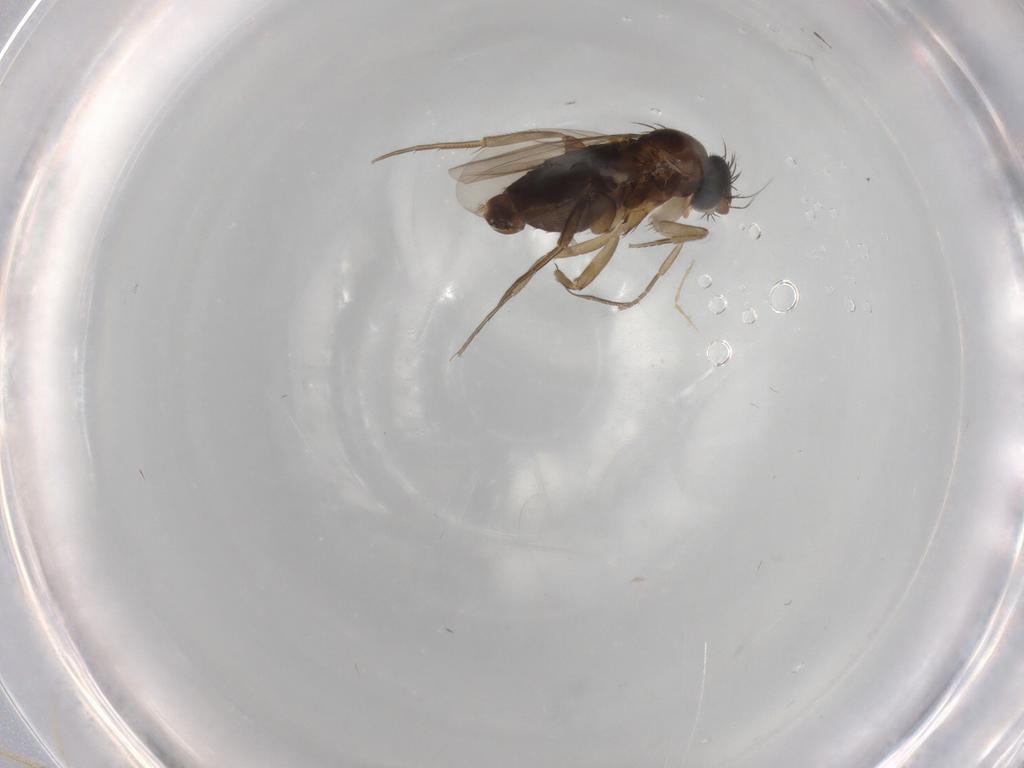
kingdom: Animalia
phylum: Arthropoda
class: Insecta
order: Diptera
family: Phoridae
